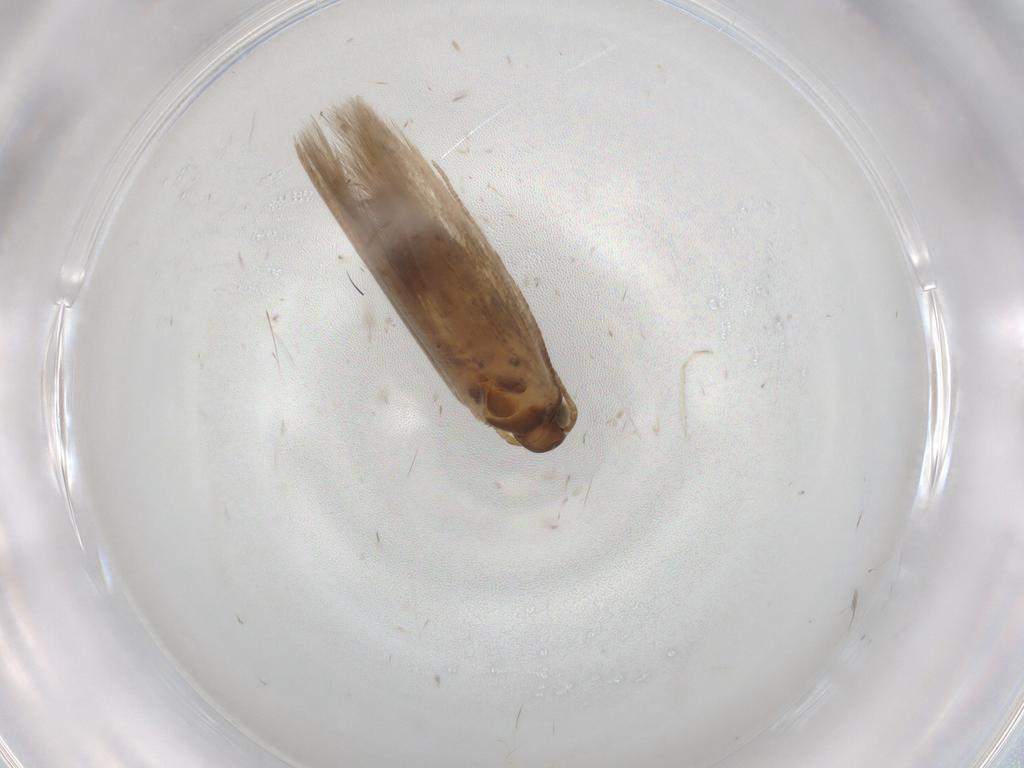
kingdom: Animalia
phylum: Arthropoda
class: Insecta
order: Lepidoptera
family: Gelechiidae
